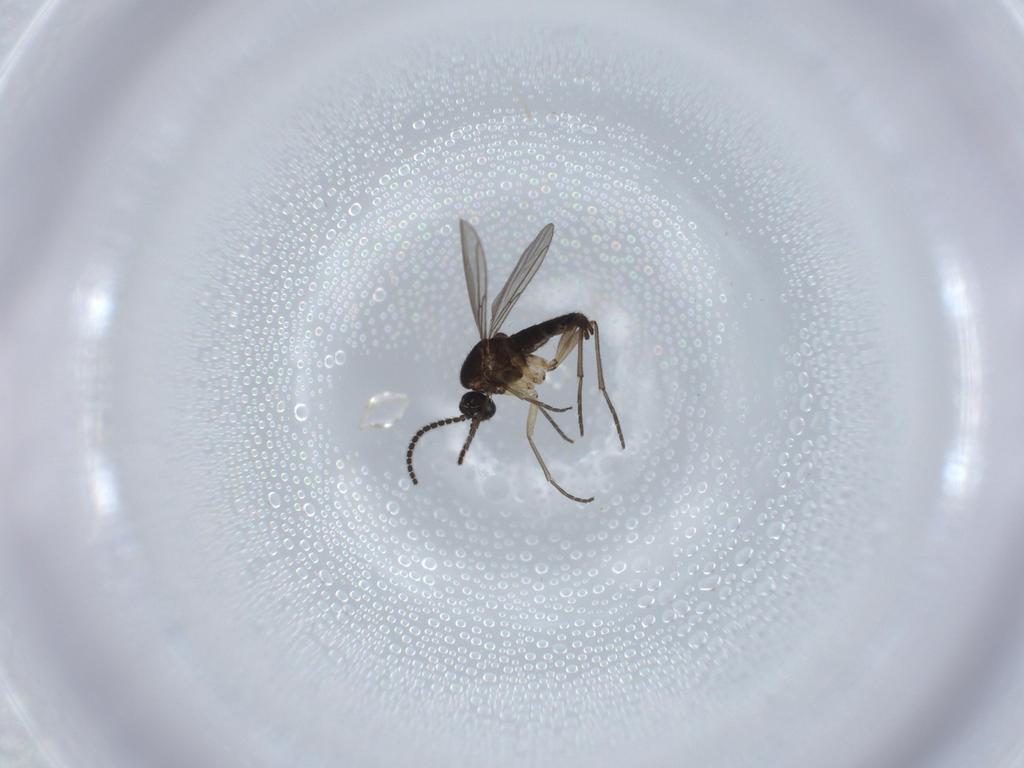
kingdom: Animalia
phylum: Arthropoda
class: Insecta
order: Diptera
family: Sciaridae
